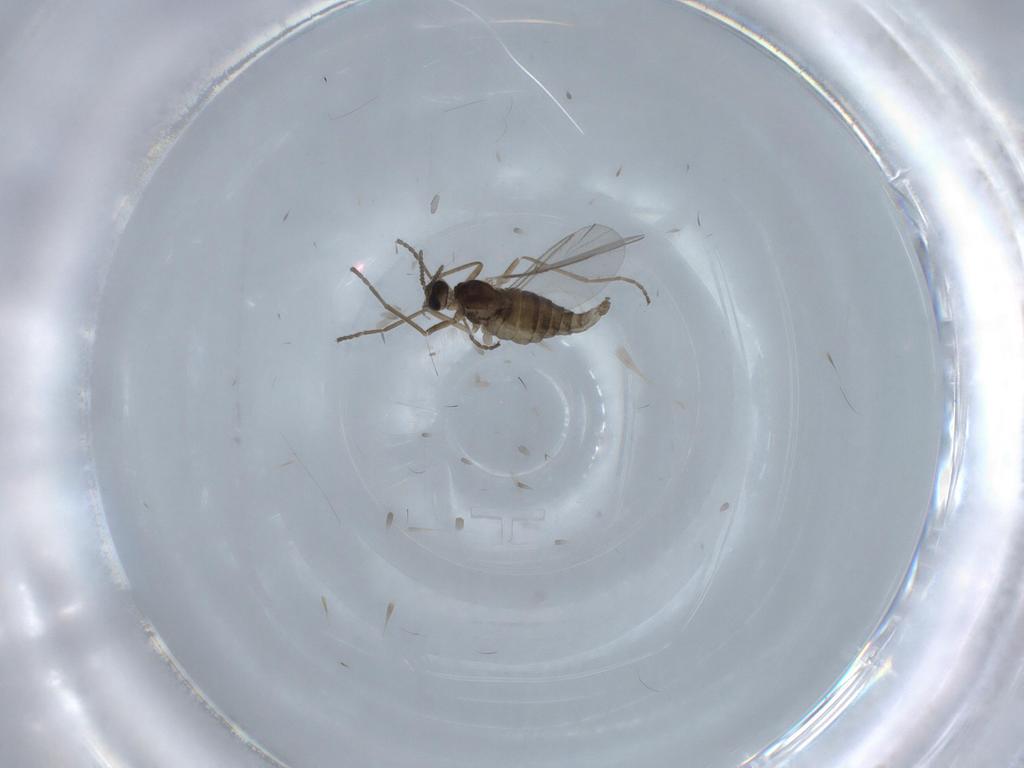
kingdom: Animalia
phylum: Arthropoda
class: Insecta
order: Diptera
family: Cecidomyiidae
